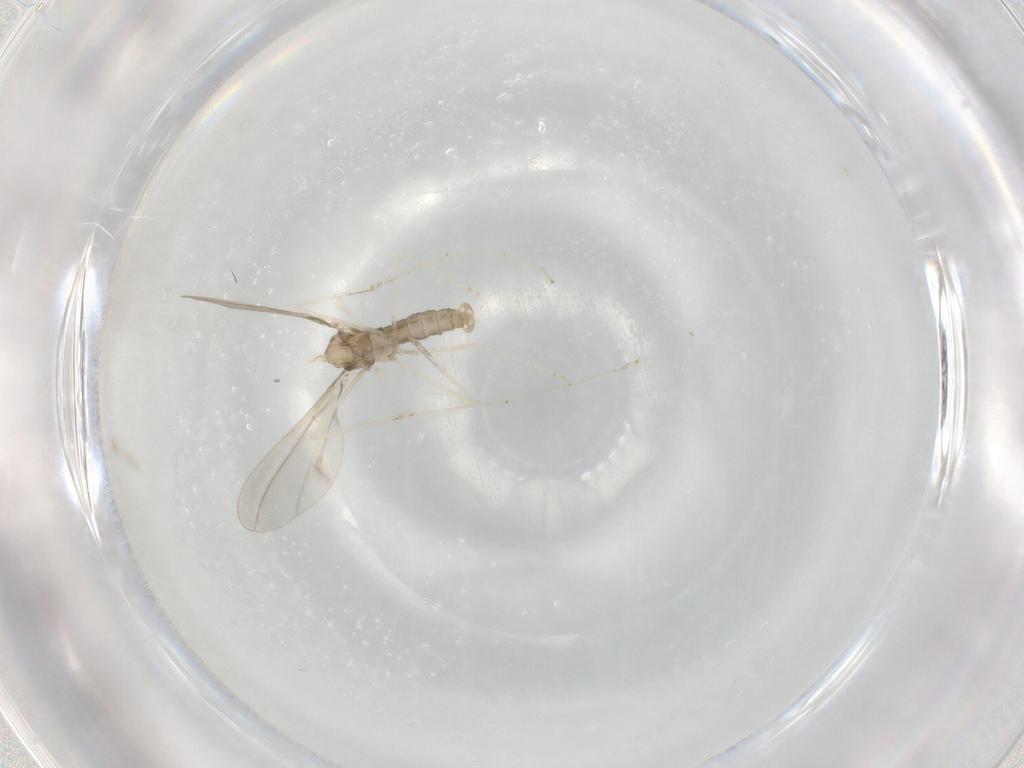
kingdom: Animalia
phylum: Arthropoda
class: Insecta
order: Diptera
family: Cecidomyiidae
